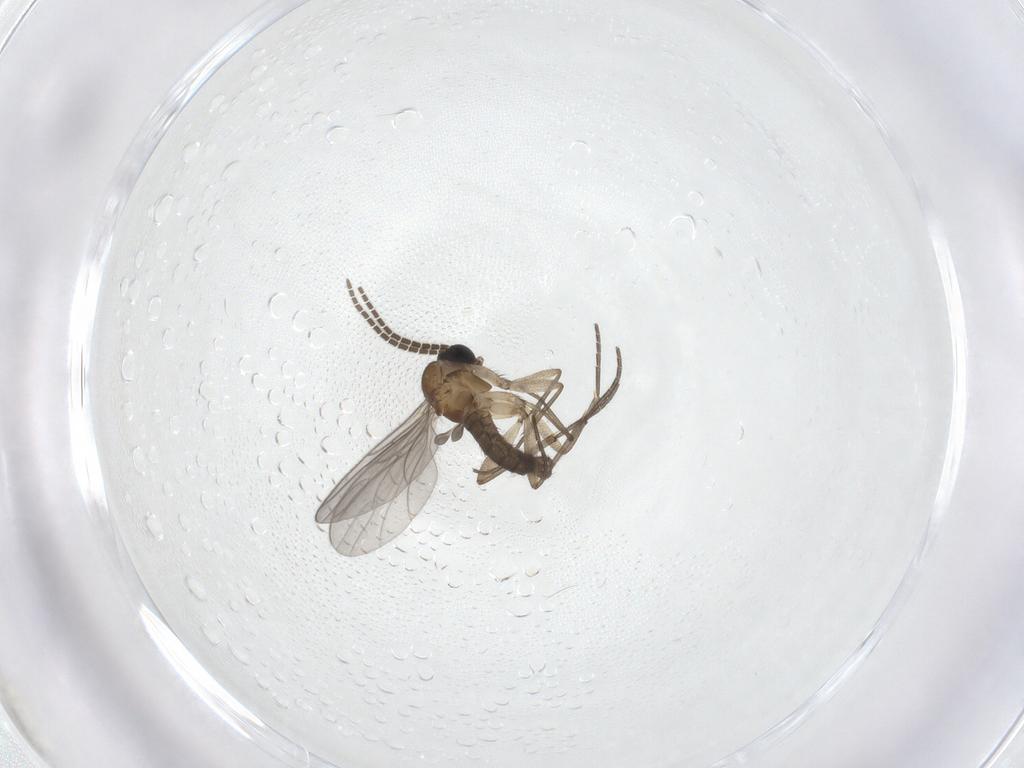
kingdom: Animalia
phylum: Arthropoda
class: Insecta
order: Diptera
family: Sciaridae
